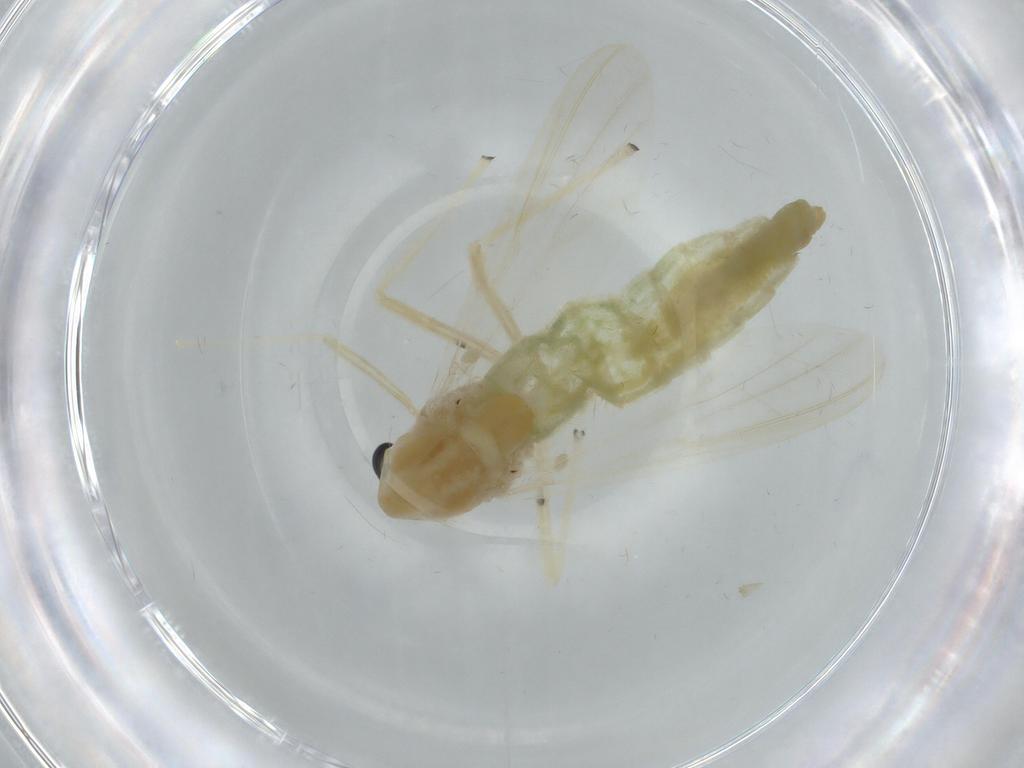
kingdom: Animalia
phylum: Arthropoda
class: Insecta
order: Diptera
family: Chironomidae
